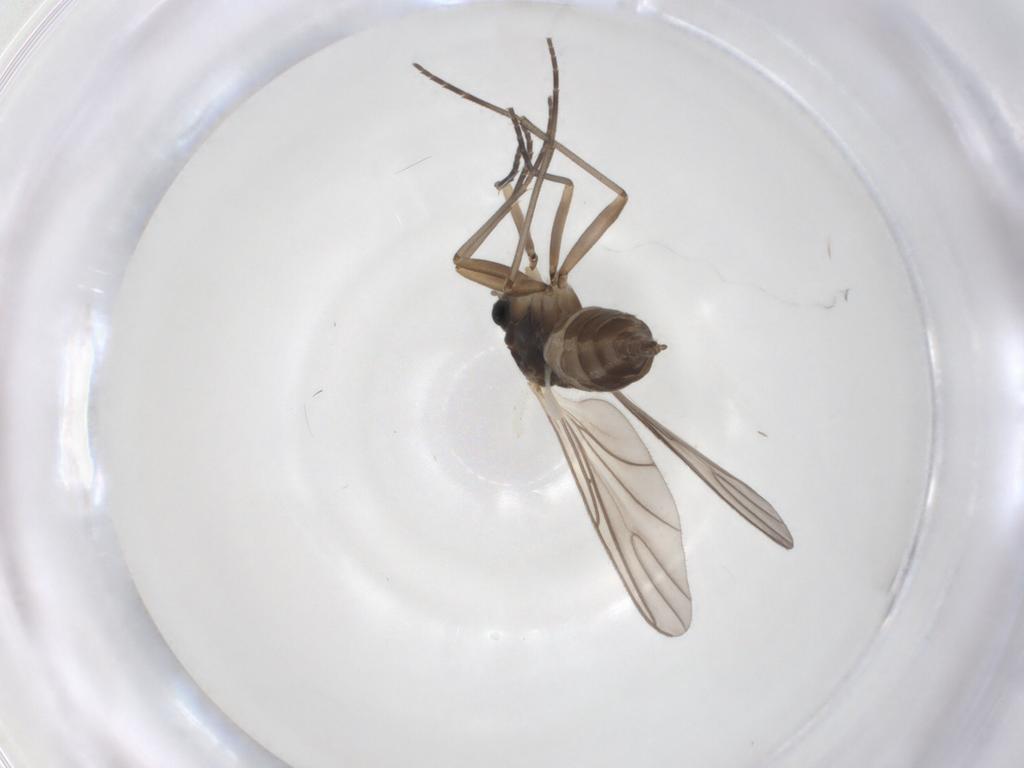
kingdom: Animalia
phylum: Arthropoda
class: Insecta
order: Diptera
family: Sciaridae
